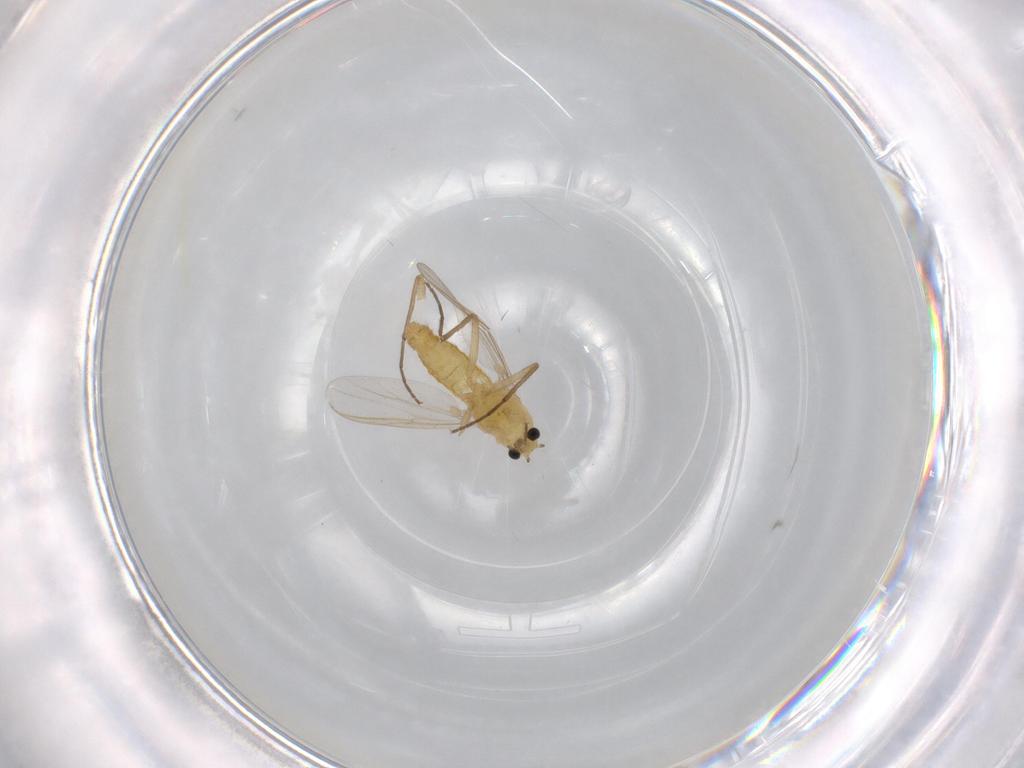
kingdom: Animalia
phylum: Arthropoda
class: Insecta
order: Diptera
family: Chironomidae
